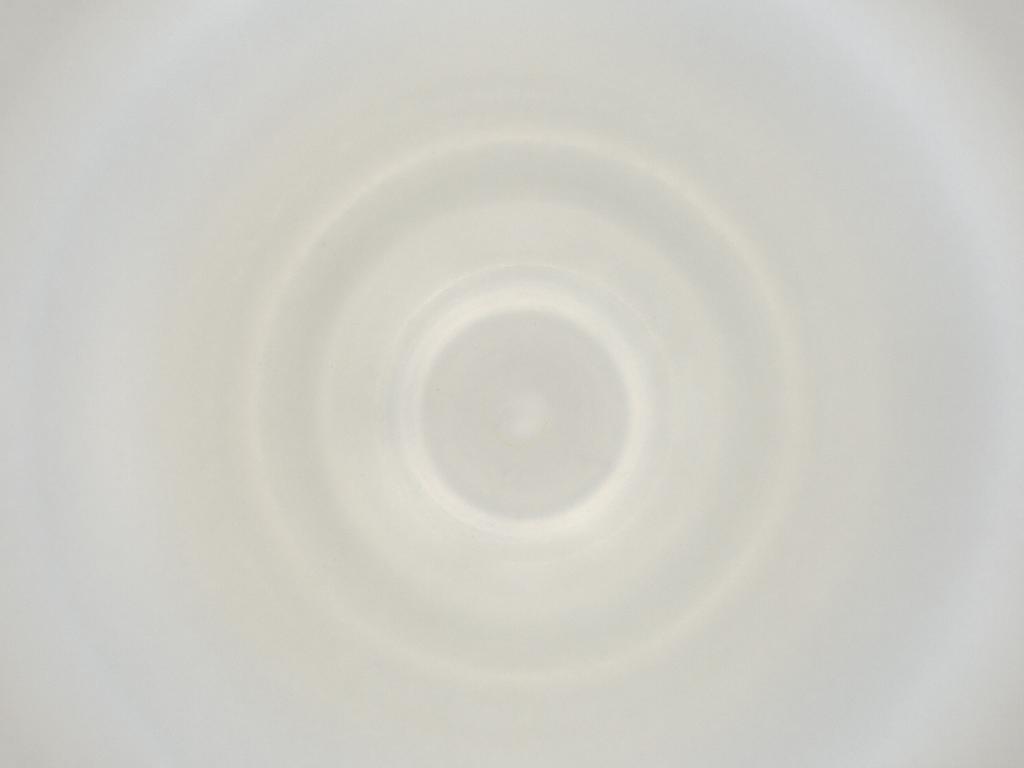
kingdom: Animalia
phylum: Arthropoda
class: Insecta
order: Diptera
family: Cecidomyiidae
